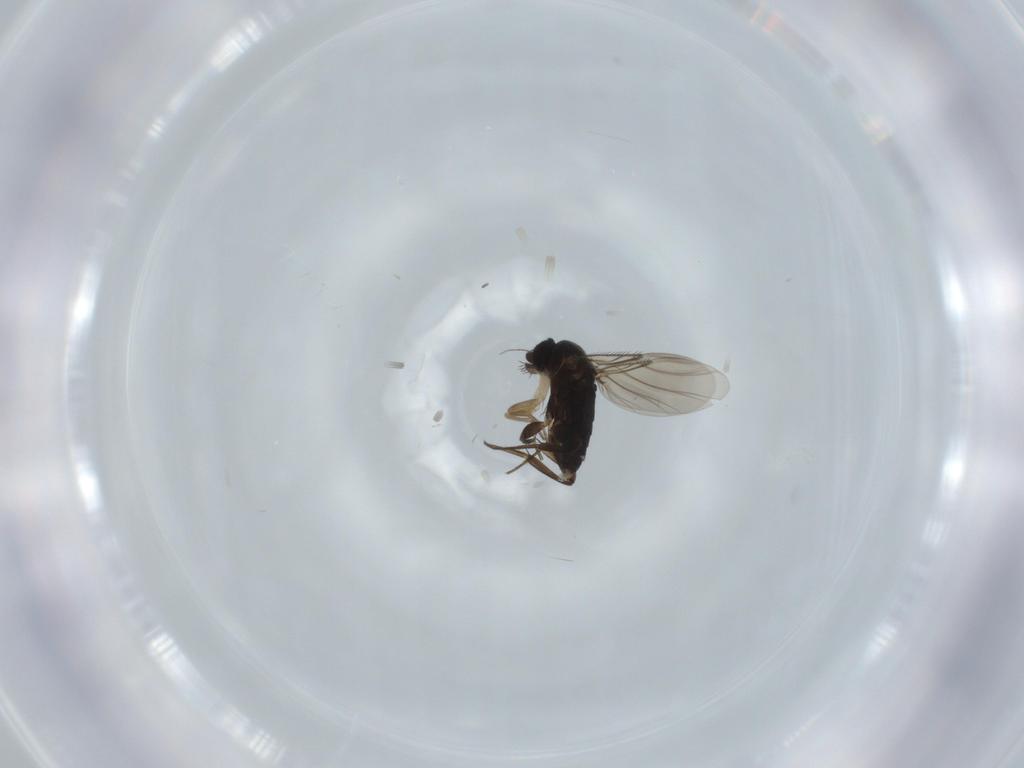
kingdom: Animalia
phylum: Arthropoda
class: Insecta
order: Diptera
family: Phoridae
